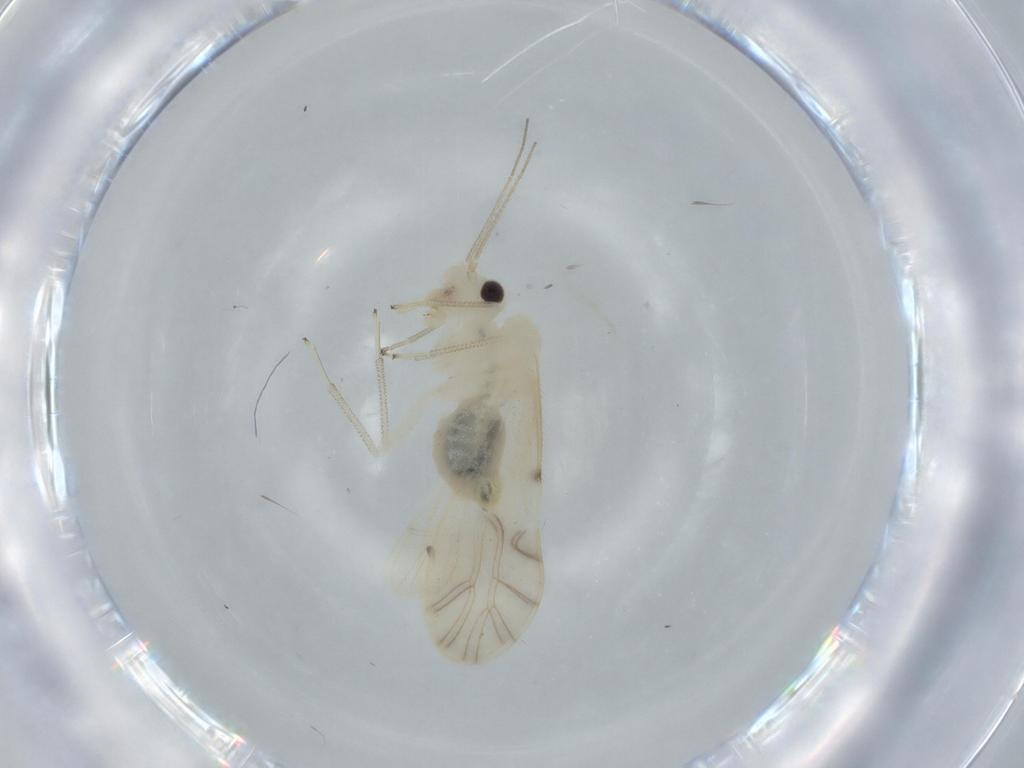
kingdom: Animalia
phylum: Arthropoda
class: Insecta
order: Psocodea
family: Caeciliusidae
